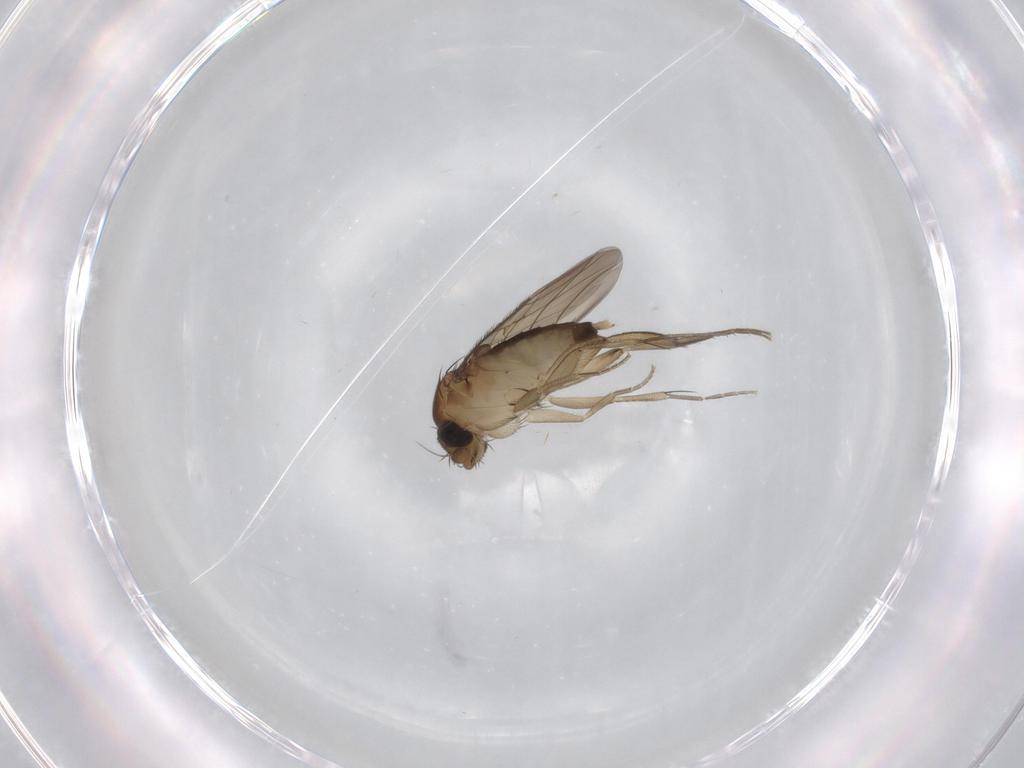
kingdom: Animalia
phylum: Arthropoda
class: Insecta
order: Diptera
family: Phoridae
